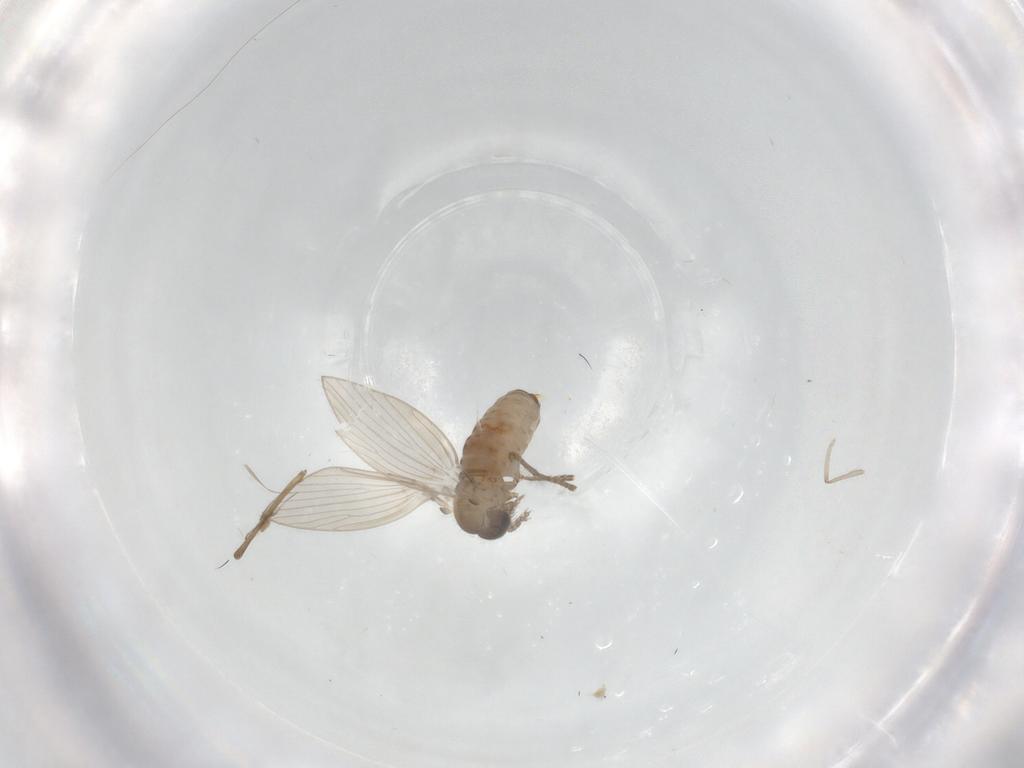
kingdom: Animalia
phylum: Arthropoda
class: Insecta
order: Diptera
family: Psychodidae
